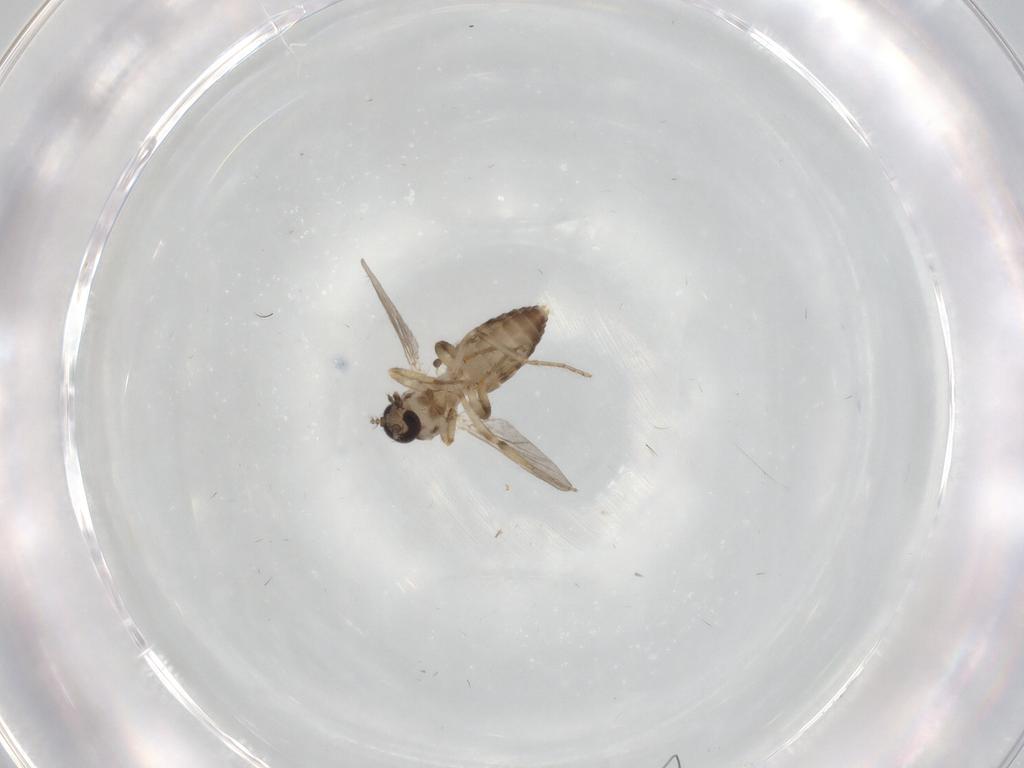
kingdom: Animalia
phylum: Arthropoda
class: Insecta
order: Diptera
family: Ceratopogonidae
